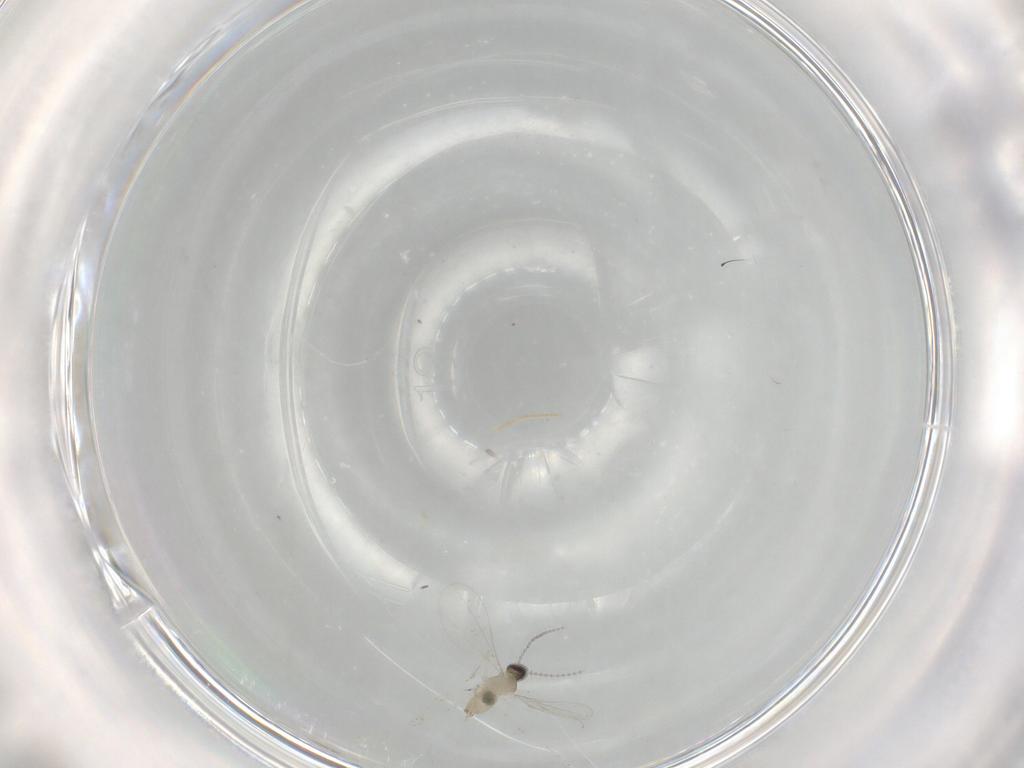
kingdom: Animalia
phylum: Arthropoda
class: Insecta
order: Diptera
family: Cecidomyiidae
